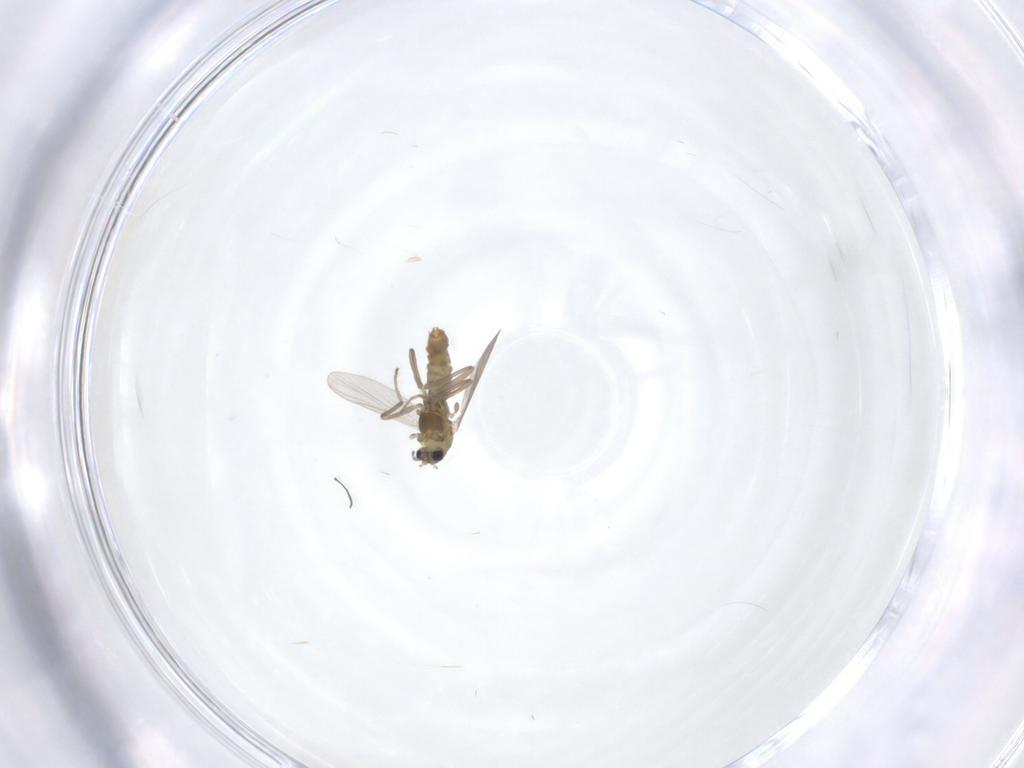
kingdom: Animalia
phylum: Arthropoda
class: Insecta
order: Diptera
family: Chironomidae
